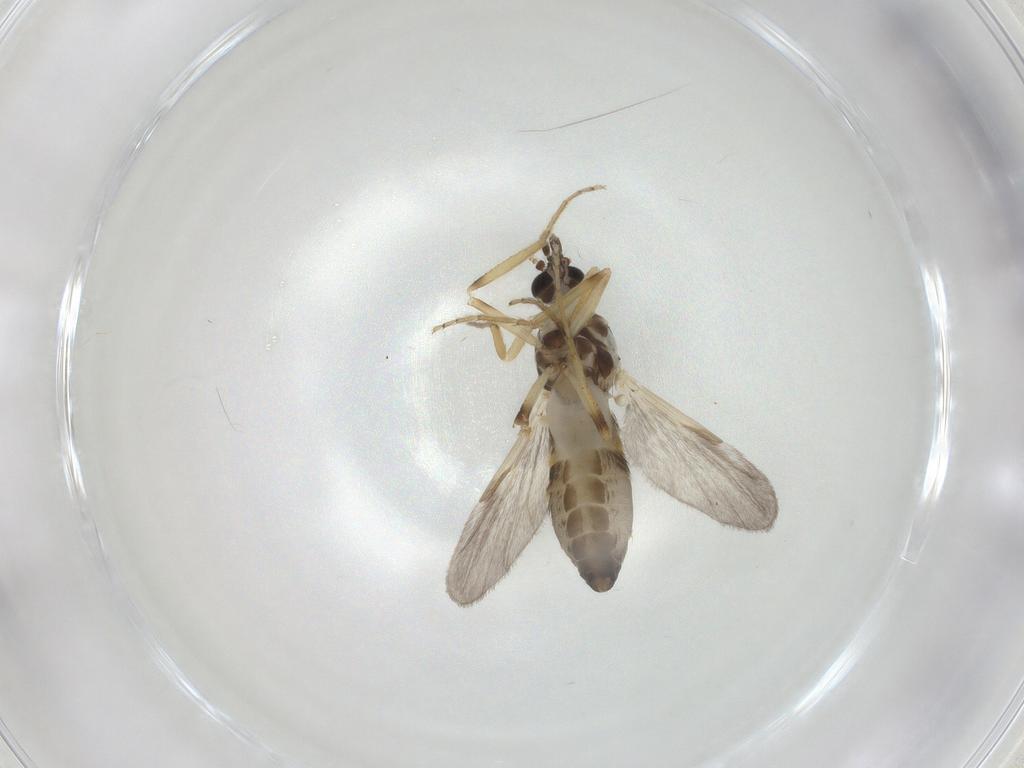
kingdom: Animalia
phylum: Arthropoda
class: Insecta
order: Diptera
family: Ceratopogonidae
